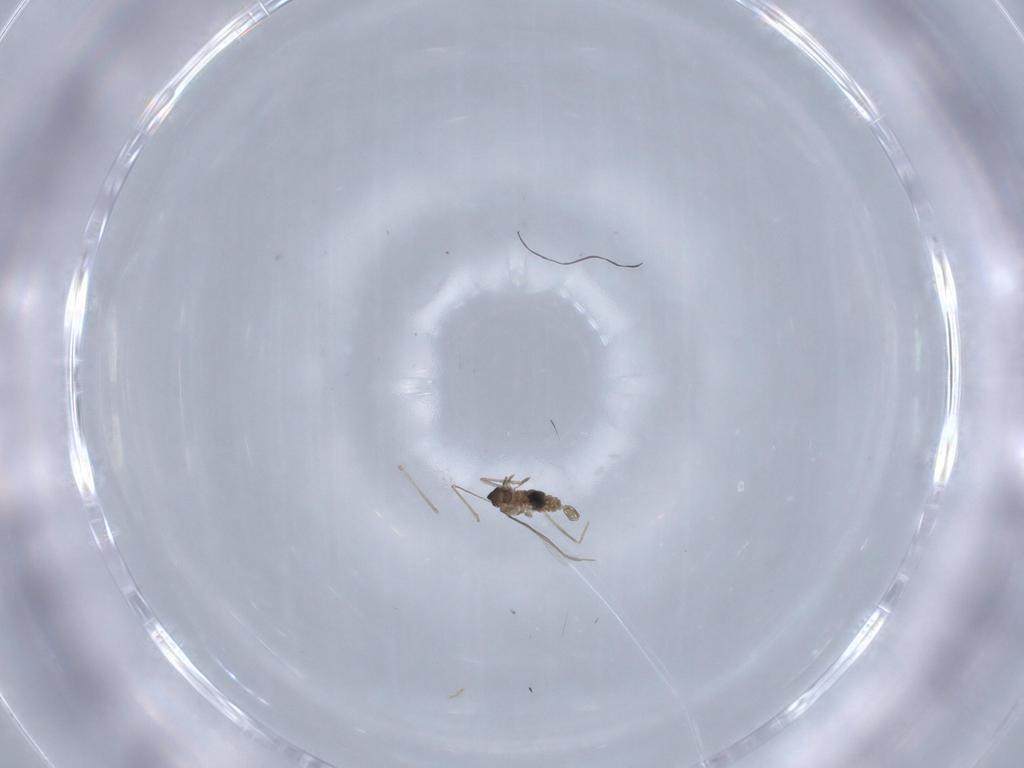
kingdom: Animalia
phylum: Arthropoda
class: Insecta
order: Diptera
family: Cecidomyiidae
